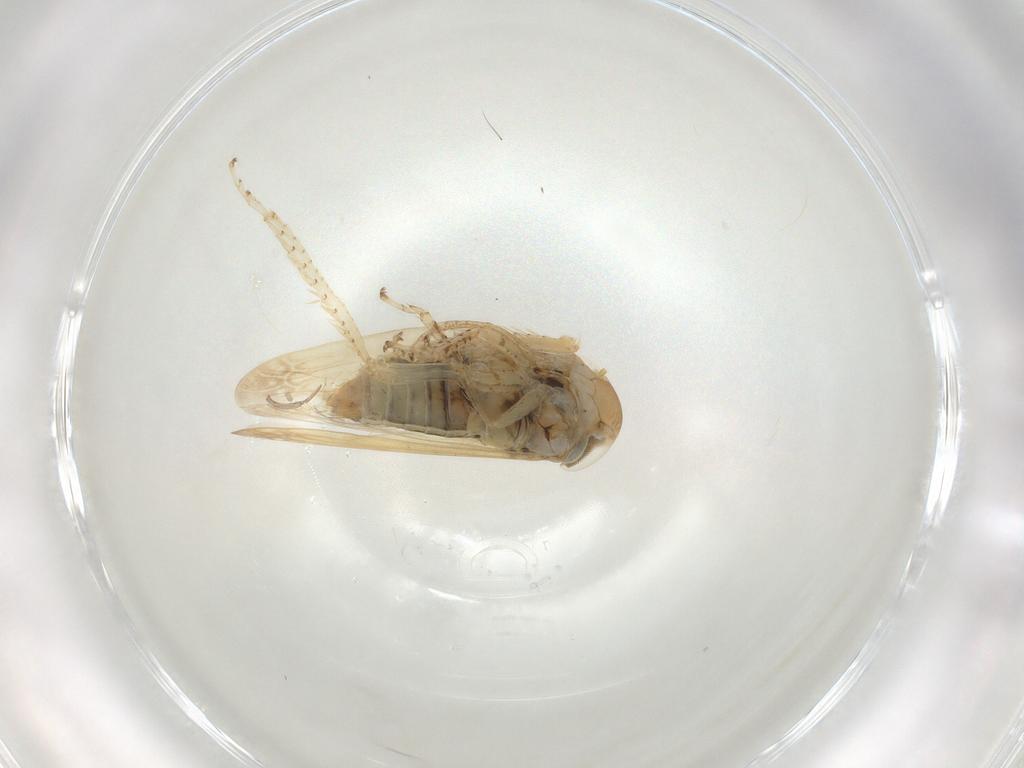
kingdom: Animalia
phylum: Arthropoda
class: Insecta
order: Hemiptera
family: Cicadellidae
